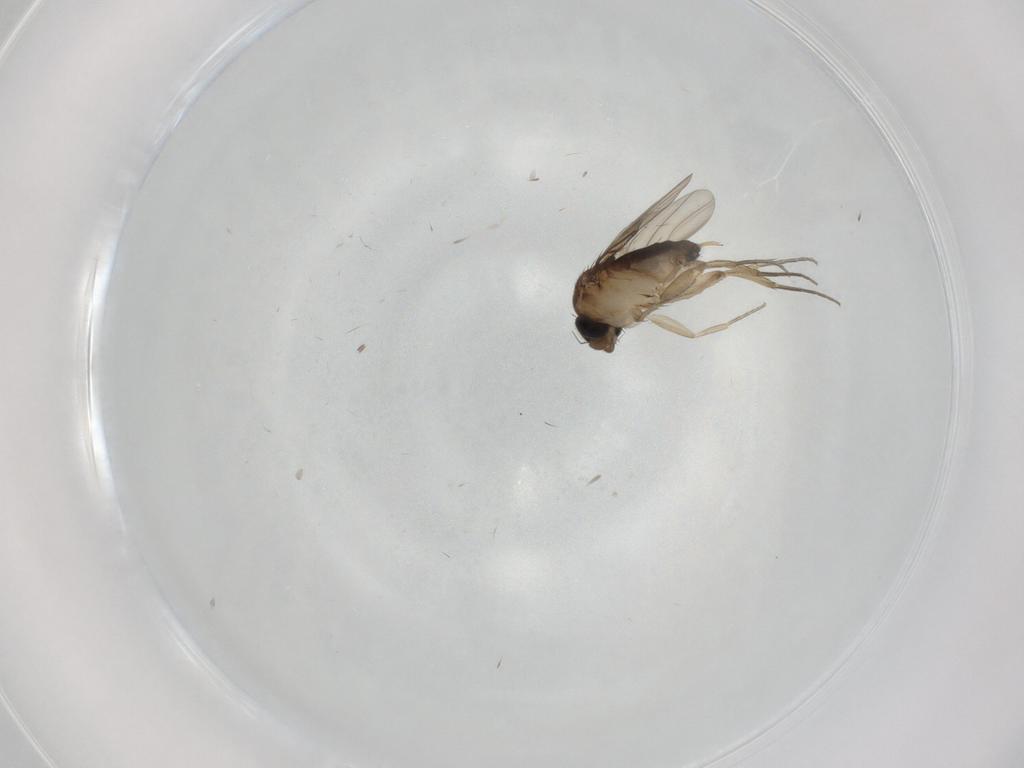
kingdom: Animalia
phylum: Arthropoda
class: Insecta
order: Diptera
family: Phoridae
